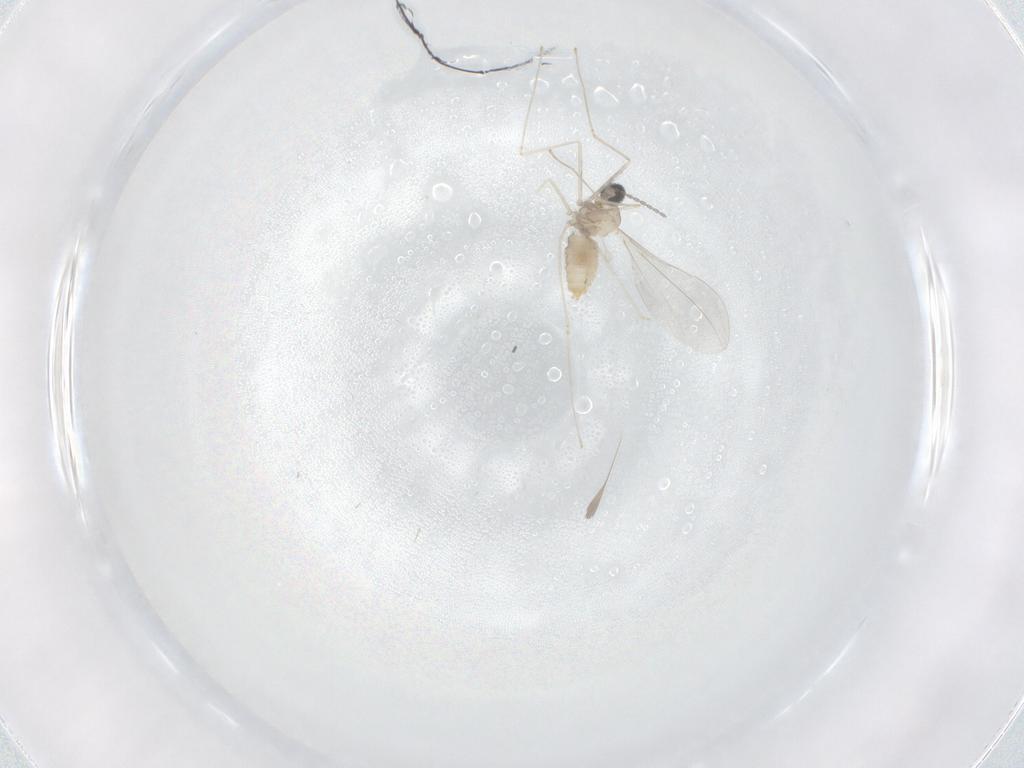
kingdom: Animalia
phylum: Arthropoda
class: Insecta
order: Diptera
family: Cecidomyiidae
